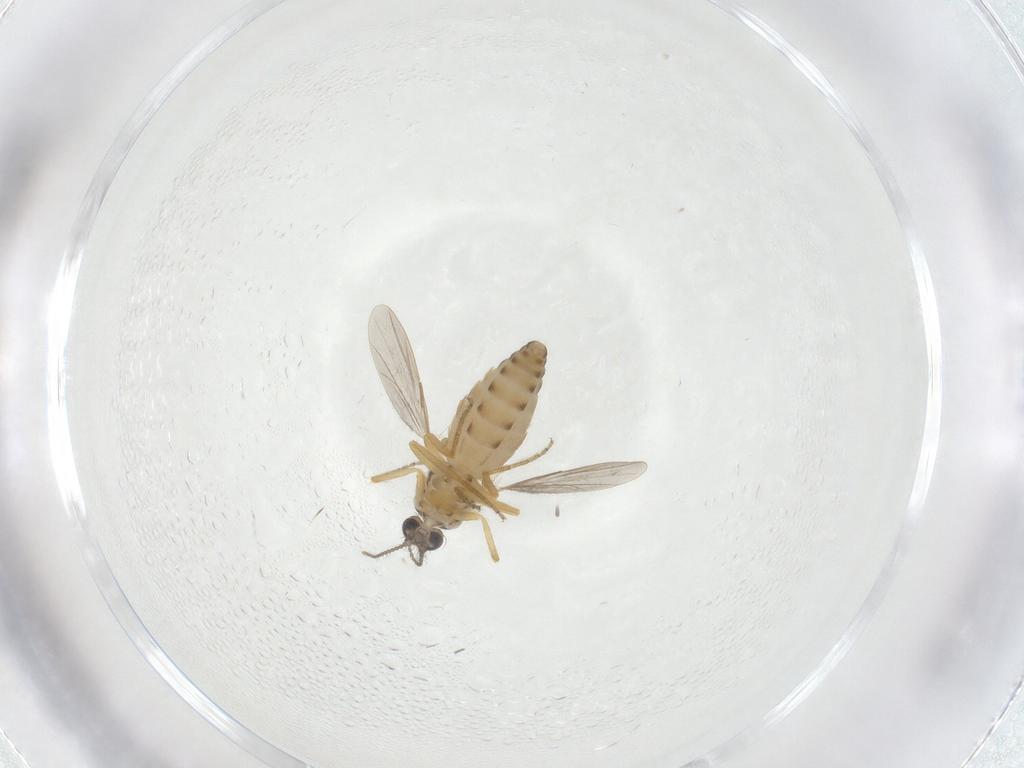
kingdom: Animalia
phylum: Arthropoda
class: Insecta
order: Diptera
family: Ceratopogonidae
